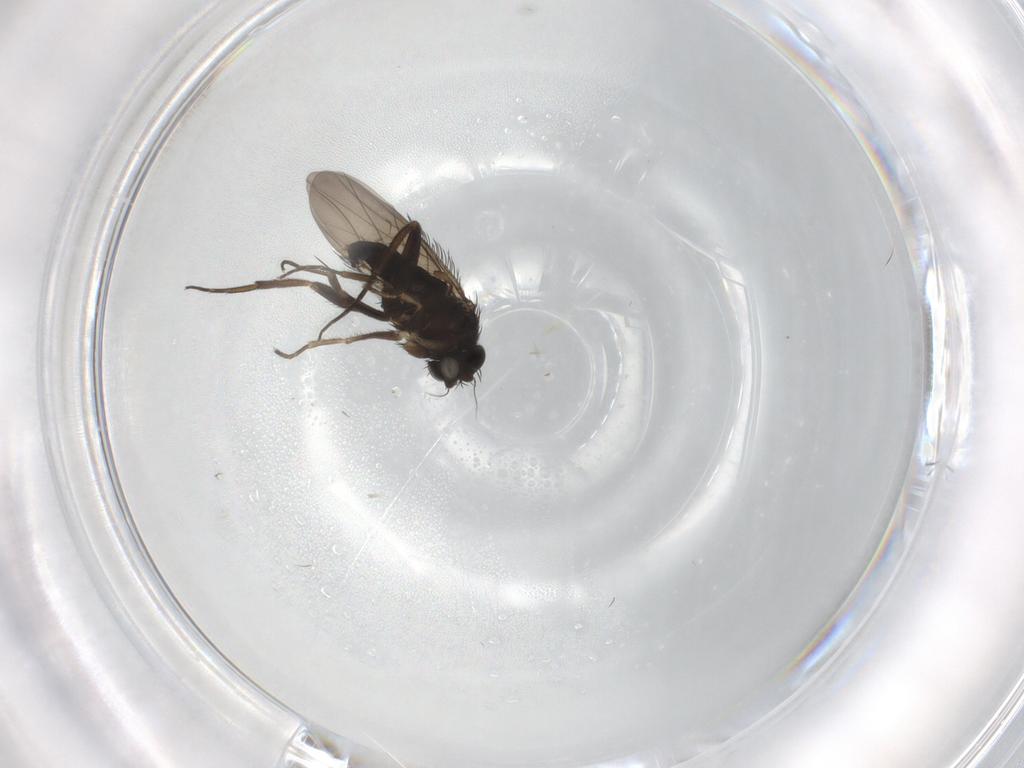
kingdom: Animalia
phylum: Arthropoda
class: Insecta
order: Diptera
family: Phoridae
